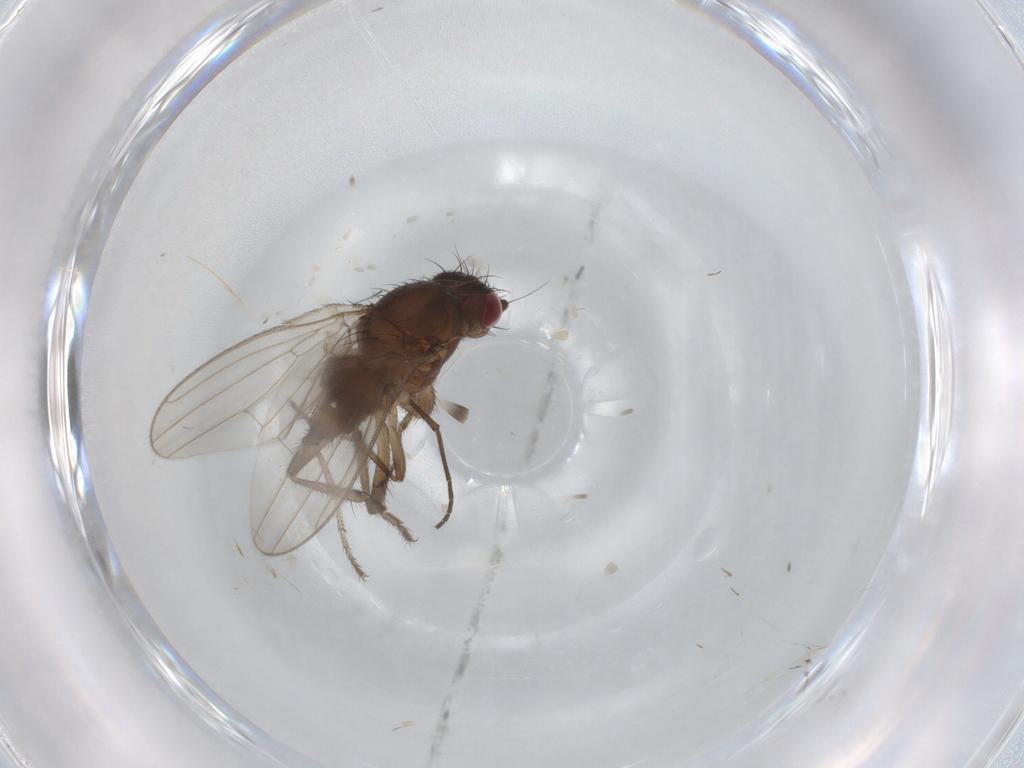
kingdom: Animalia
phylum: Arthropoda
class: Insecta
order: Diptera
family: Sphaeroceridae
